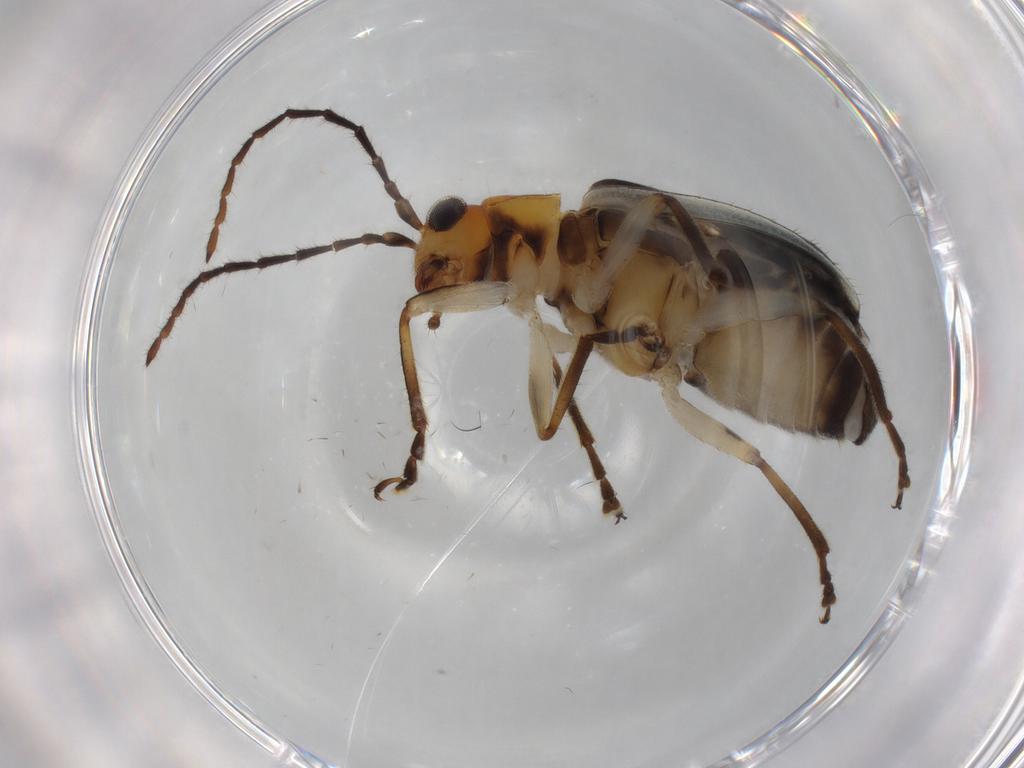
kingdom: Animalia
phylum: Arthropoda
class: Insecta
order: Coleoptera
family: Chrysomelidae
